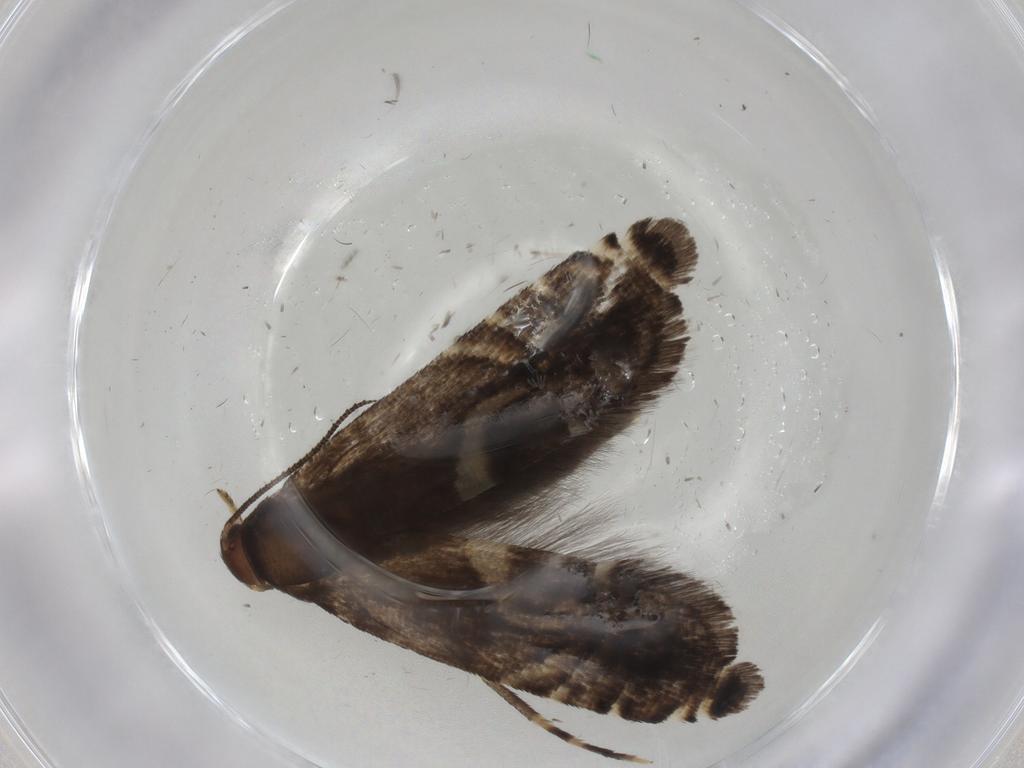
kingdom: Animalia
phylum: Arthropoda
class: Insecta
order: Lepidoptera
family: Glyphipterigidae
